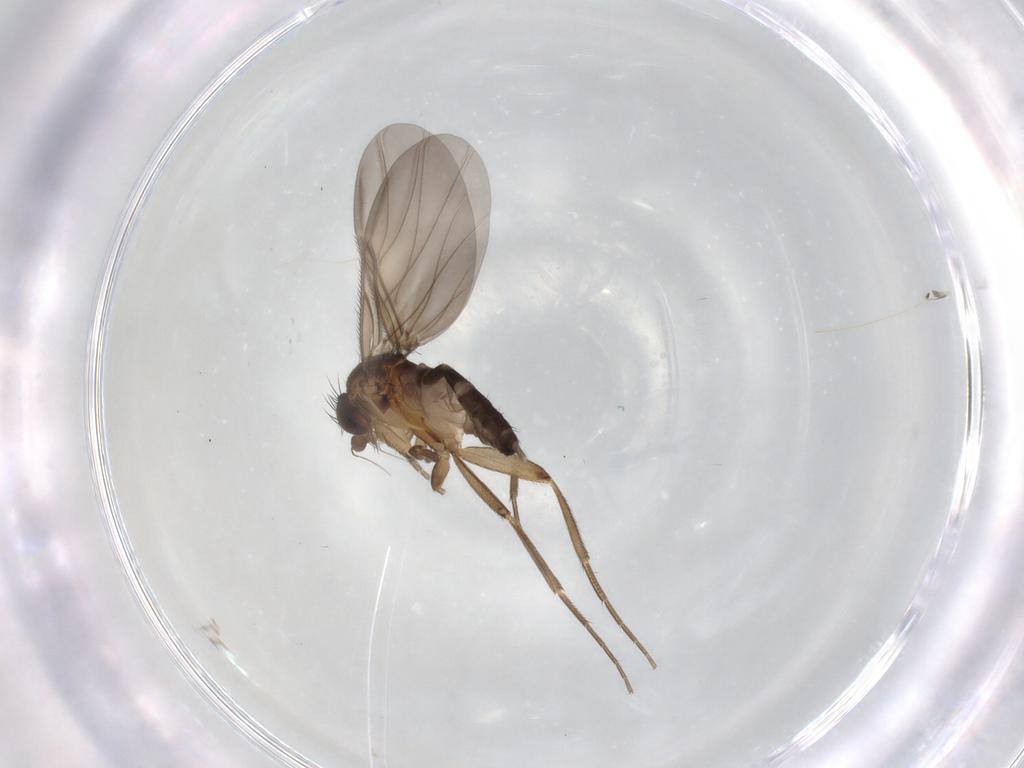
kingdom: Animalia
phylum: Arthropoda
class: Insecta
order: Diptera
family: Phoridae
